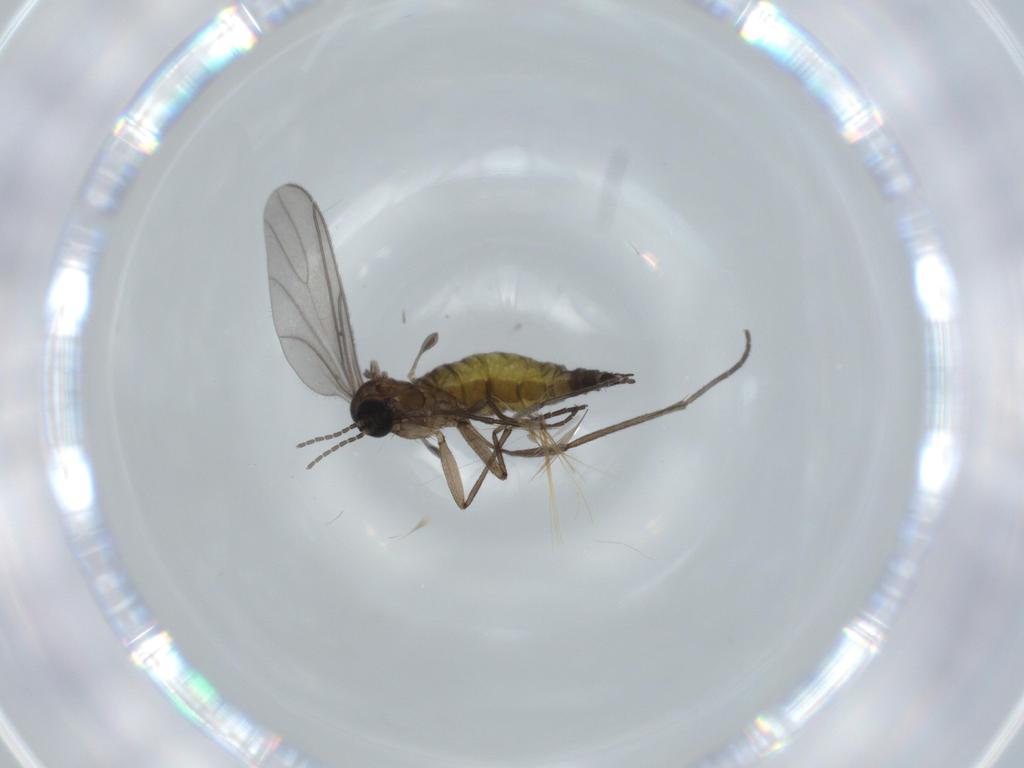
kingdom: Animalia
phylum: Arthropoda
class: Insecta
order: Diptera
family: Sciaridae
